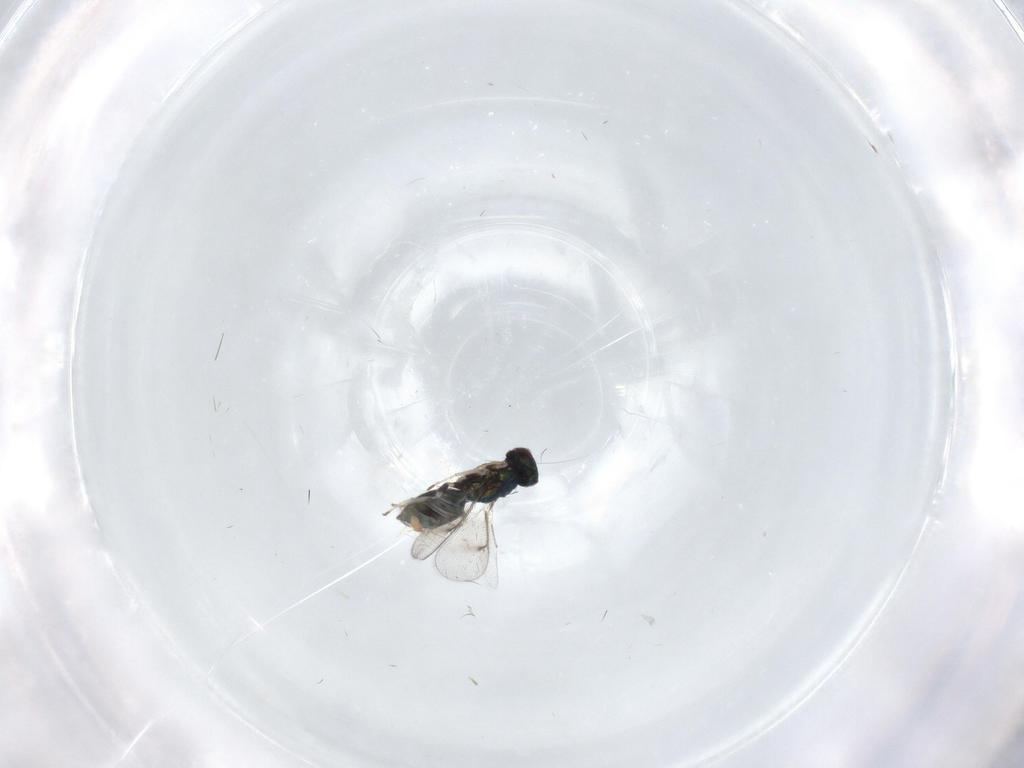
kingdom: Animalia
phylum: Arthropoda
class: Insecta
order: Hymenoptera
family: Eulophidae
